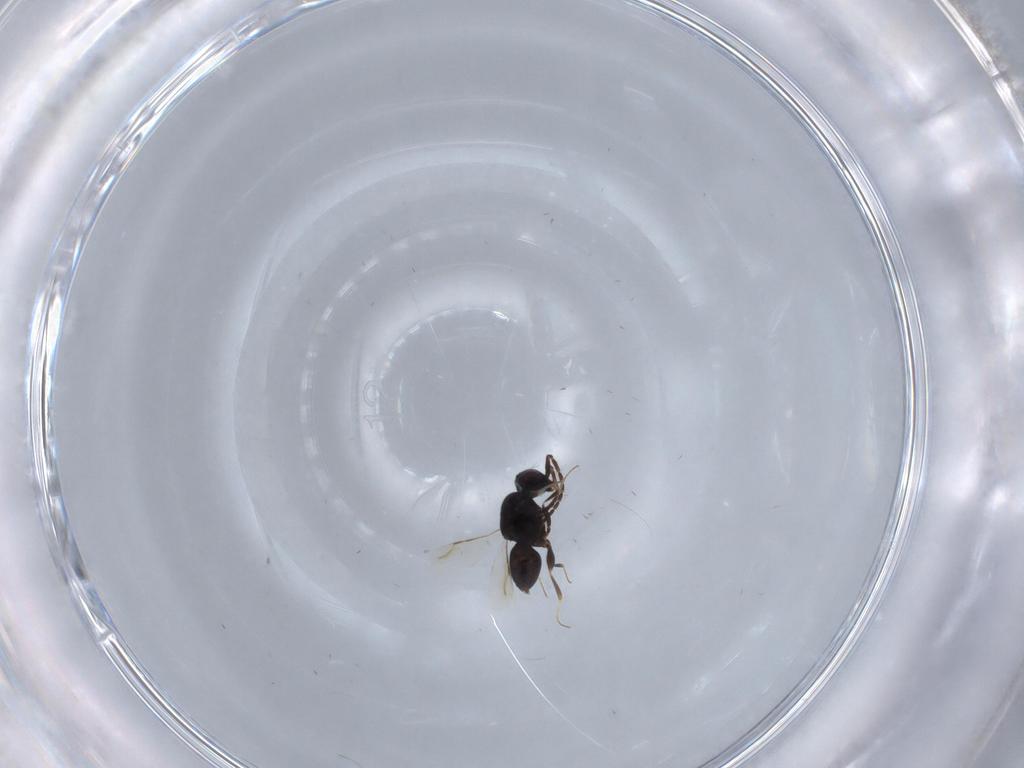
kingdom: Animalia
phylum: Arthropoda
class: Insecta
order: Hymenoptera
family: Ceraphronidae
